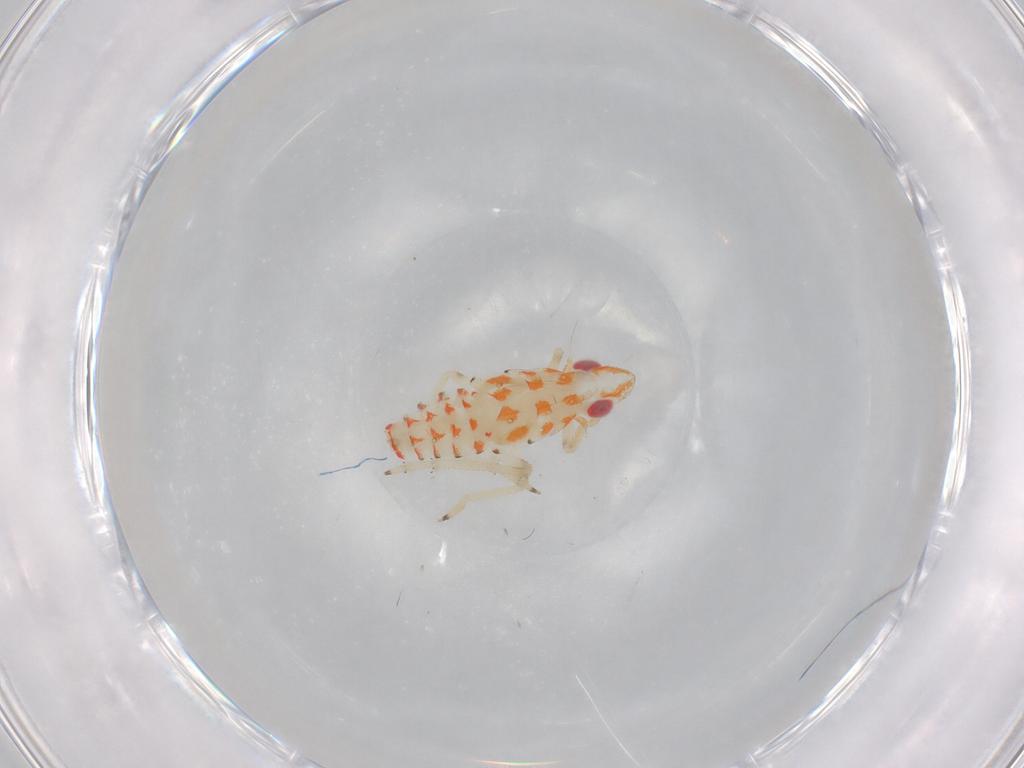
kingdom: Animalia
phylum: Arthropoda
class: Insecta
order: Hemiptera
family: Tropiduchidae
